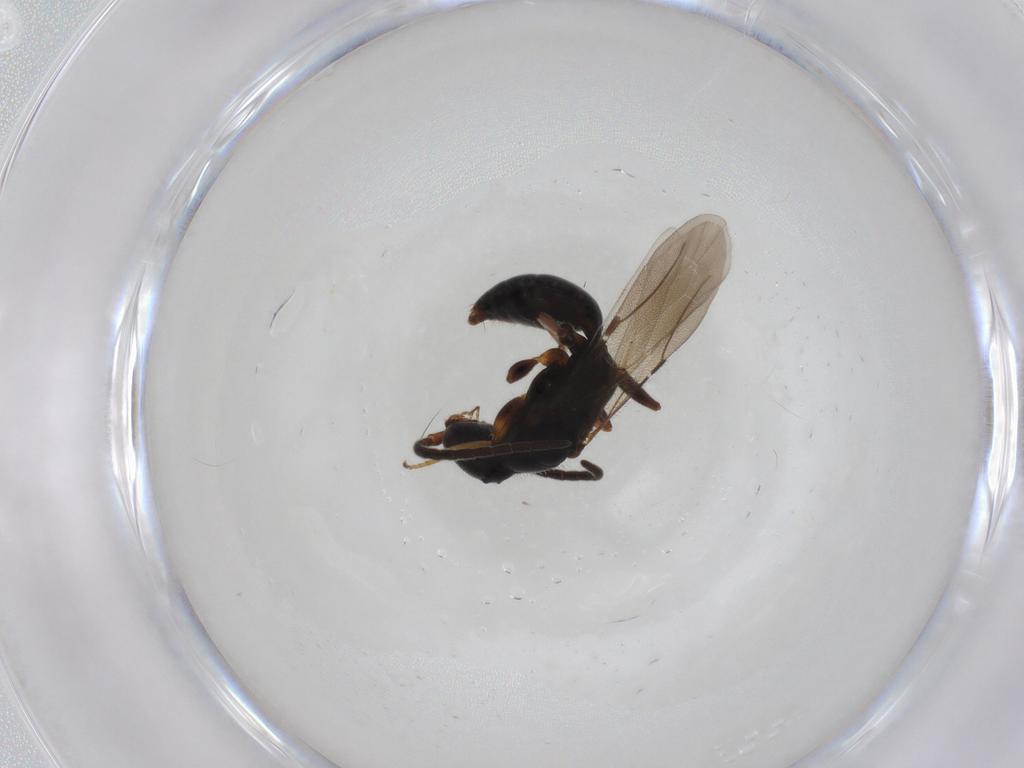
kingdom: Animalia
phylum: Arthropoda
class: Insecta
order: Hymenoptera
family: Bethylidae
